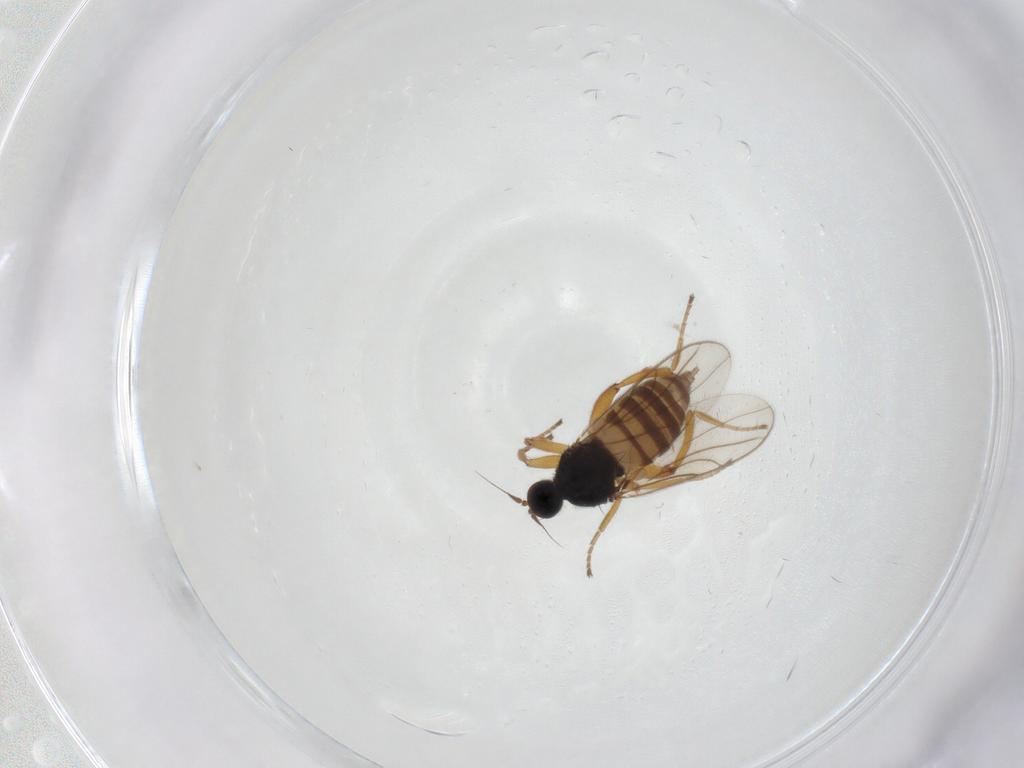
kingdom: Animalia
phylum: Arthropoda
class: Insecta
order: Diptera
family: Hybotidae
